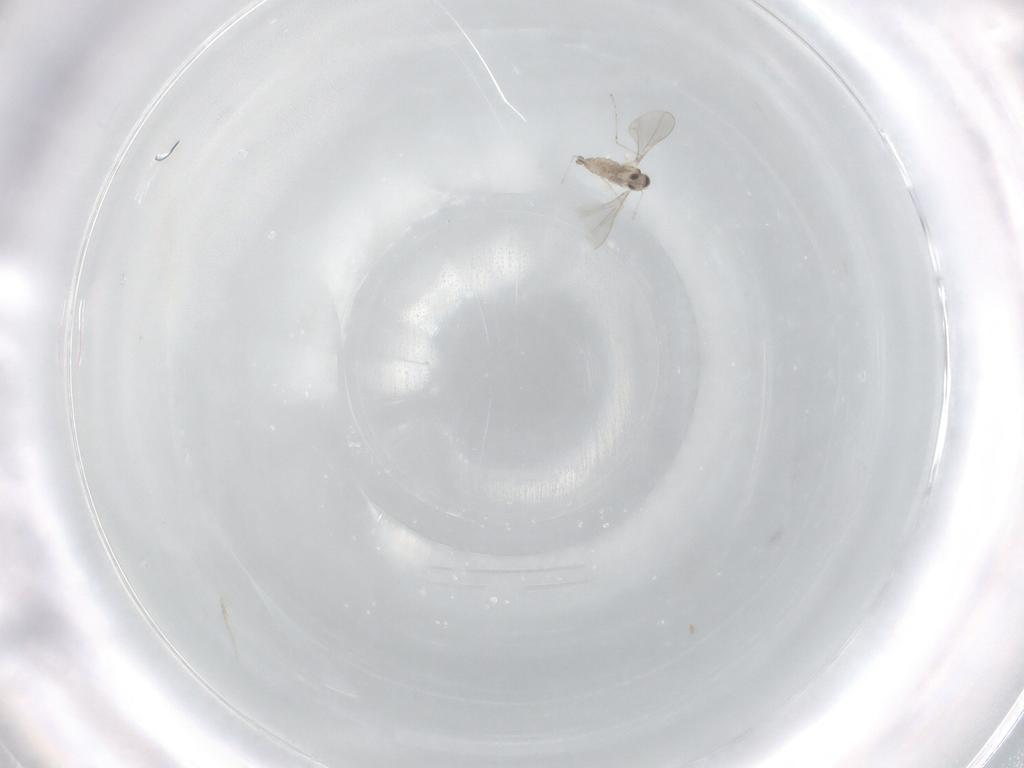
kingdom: Animalia
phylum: Arthropoda
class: Insecta
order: Diptera
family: Cecidomyiidae
